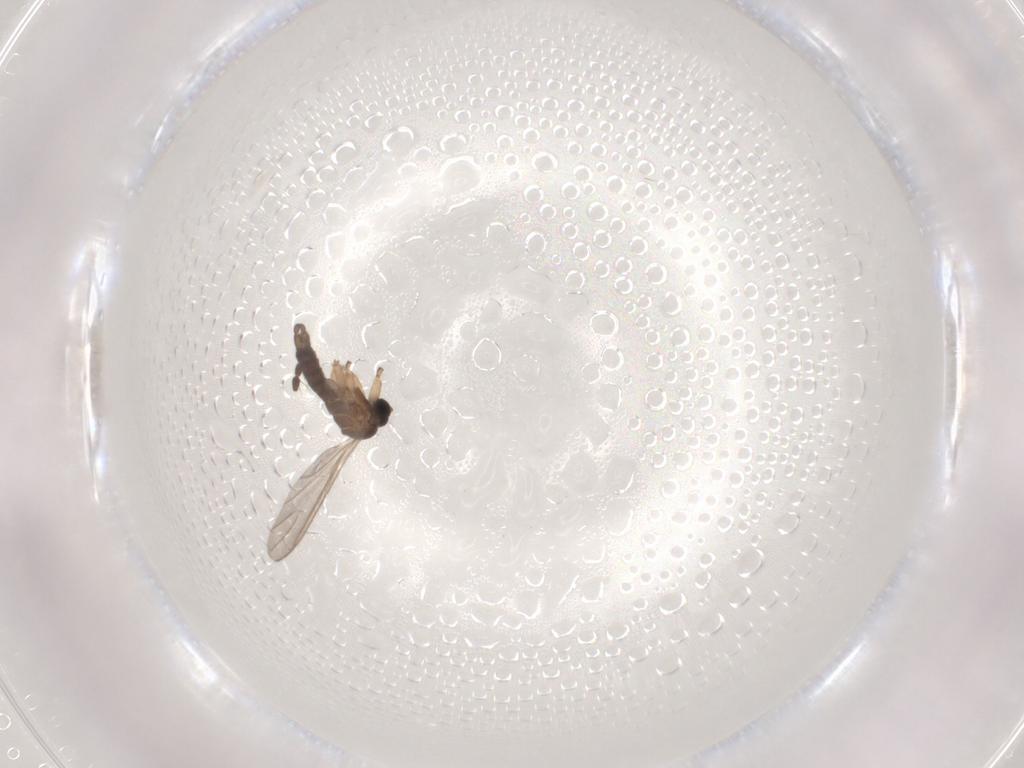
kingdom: Animalia
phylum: Arthropoda
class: Insecta
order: Diptera
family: Sciaridae
